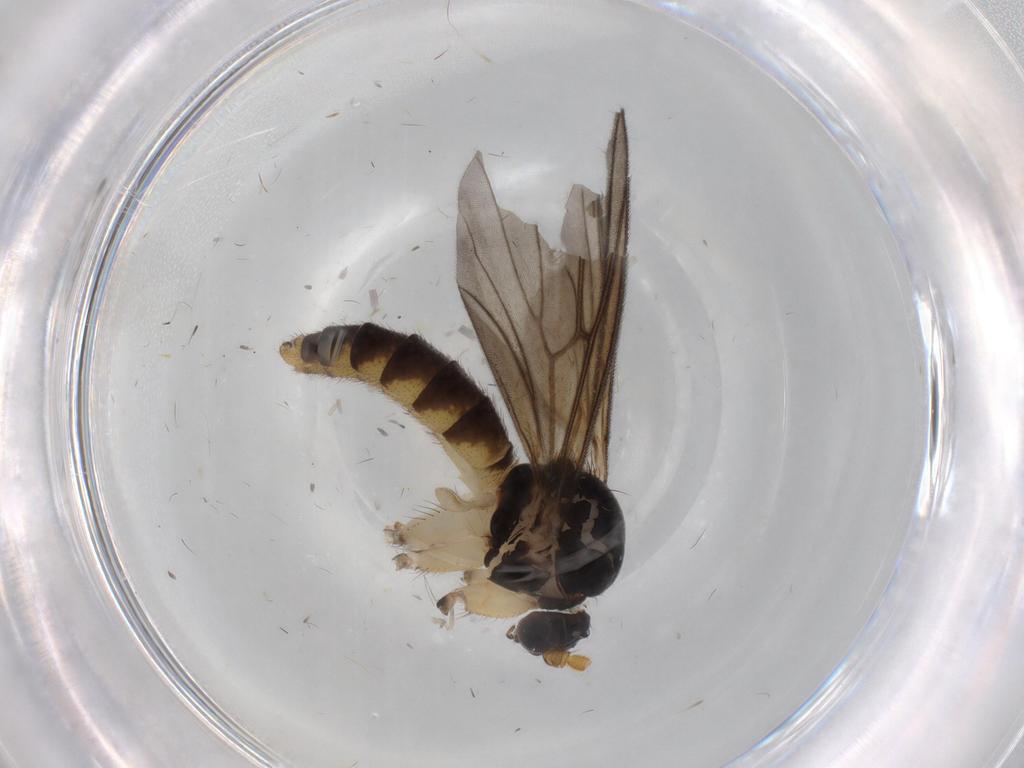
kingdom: Animalia
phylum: Arthropoda
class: Insecta
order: Diptera
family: Mycetophilidae
